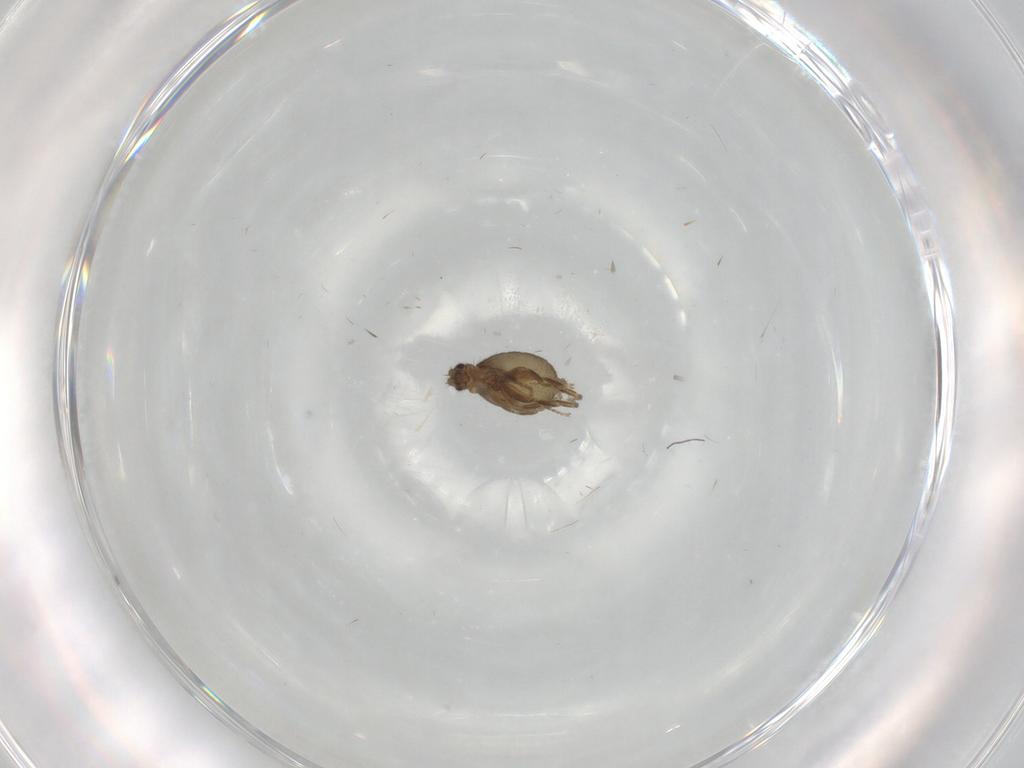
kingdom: Animalia
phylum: Arthropoda
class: Insecta
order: Diptera
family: Phoridae
